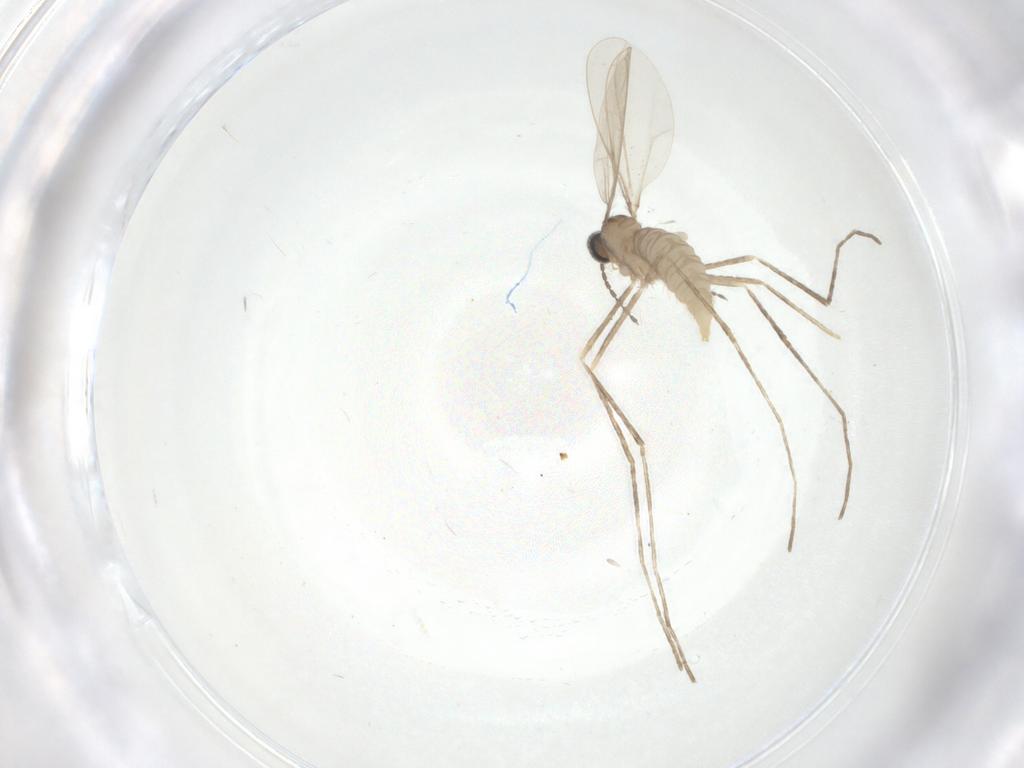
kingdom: Animalia
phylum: Arthropoda
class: Insecta
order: Diptera
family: Cecidomyiidae
